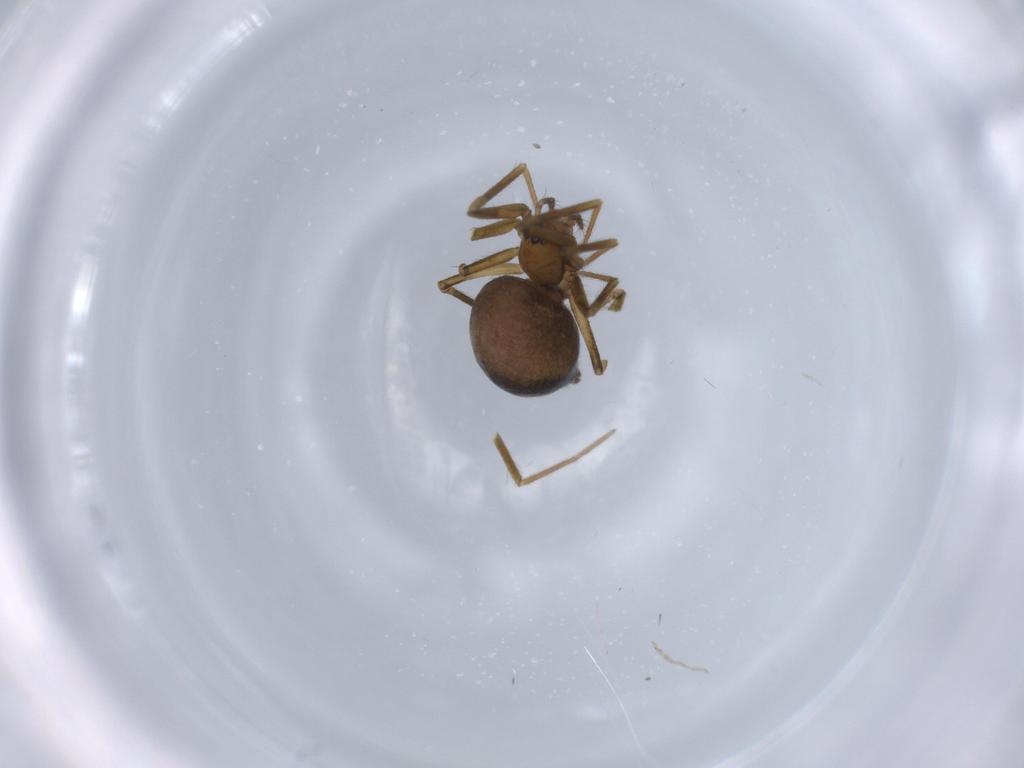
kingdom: Animalia
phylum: Arthropoda
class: Arachnida
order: Araneae
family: Linyphiidae
